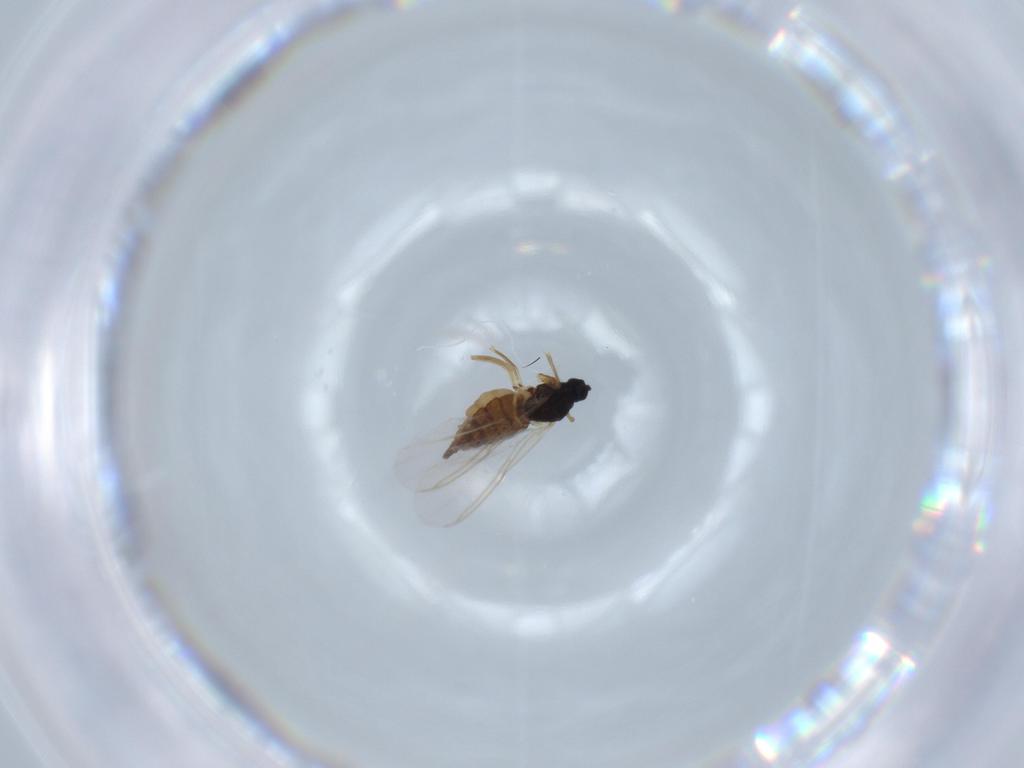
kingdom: Animalia
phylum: Arthropoda
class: Insecta
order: Diptera
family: Sciaridae
